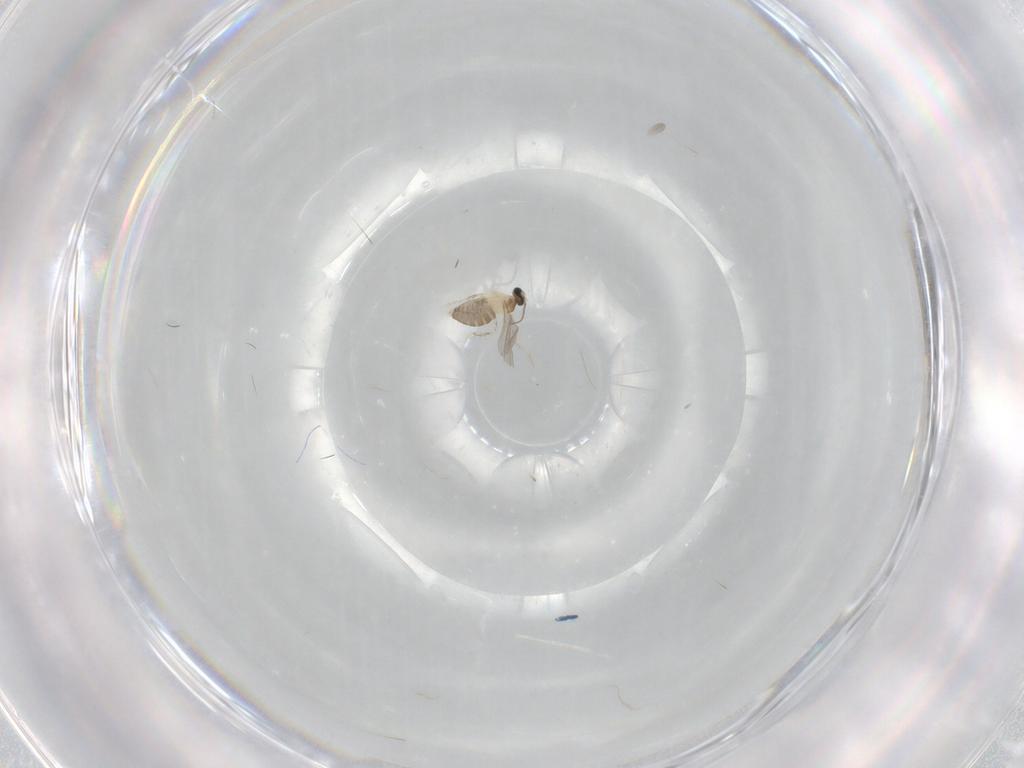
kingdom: Animalia
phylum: Arthropoda
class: Insecta
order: Diptera
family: Cecidomyiidae
